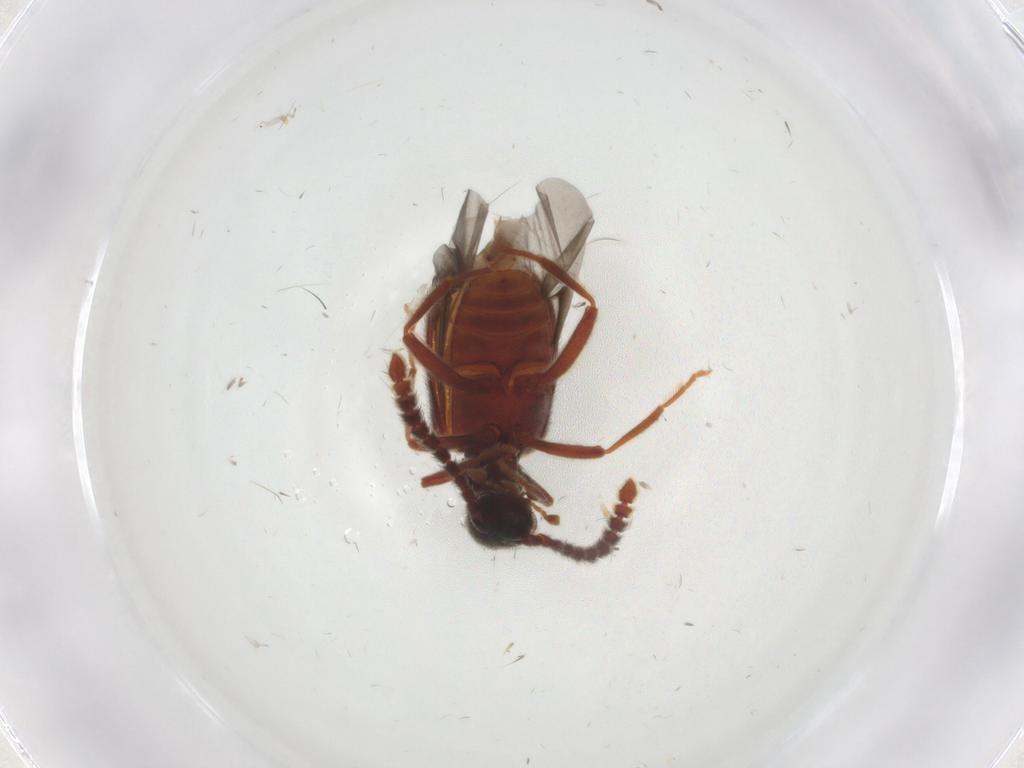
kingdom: Animalia
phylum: Arthropoda
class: Insecta
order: Coleoptera
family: Aderidae
